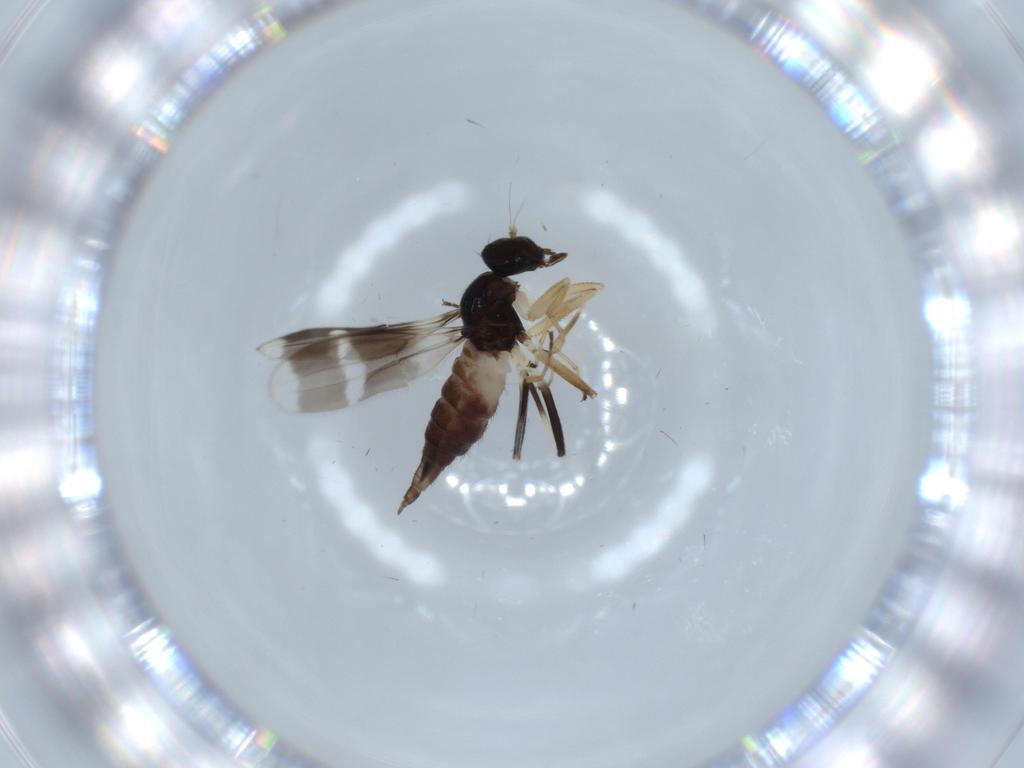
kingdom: Animalia
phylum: Arthropoda
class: Insecta
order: Diptera
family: Hybotidae
